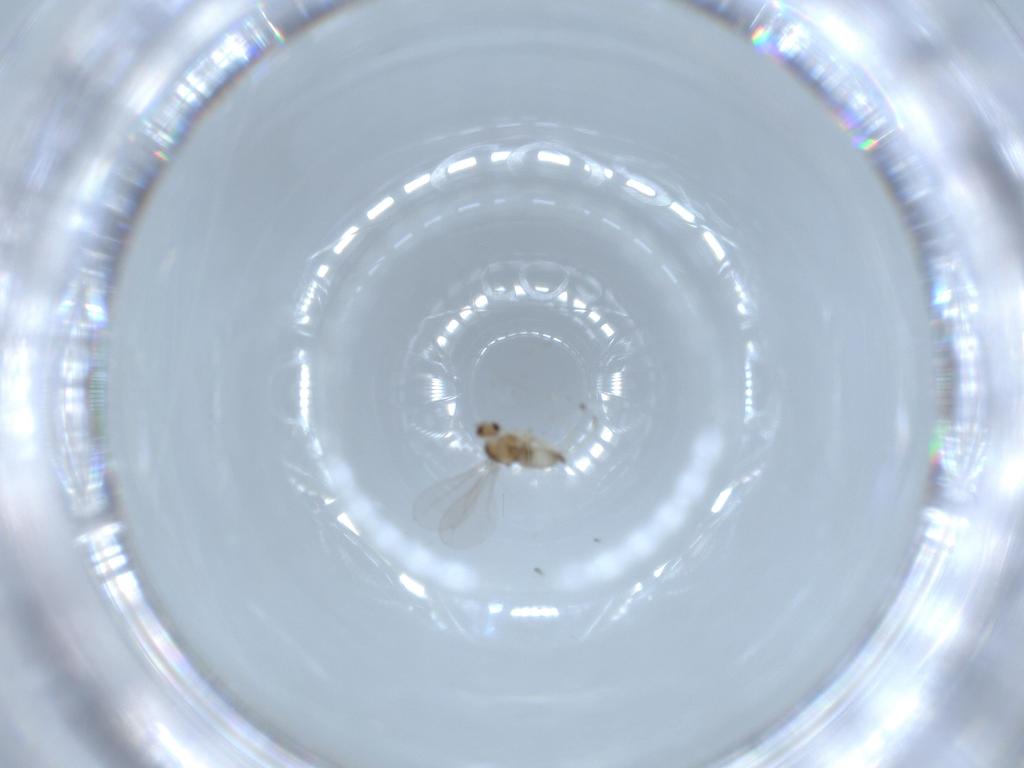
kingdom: Animalia
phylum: Arthropoda
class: Insecta
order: Diptera
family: Cecidomyiidae
